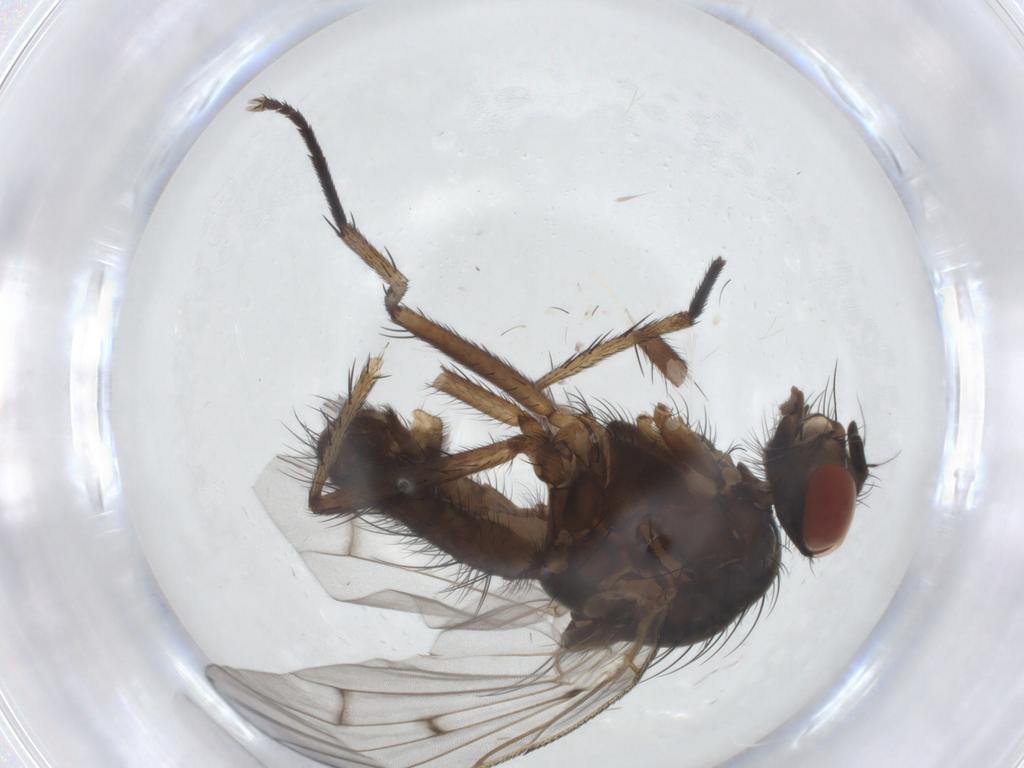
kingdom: Animalia
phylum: Arthropoda
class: Insecta
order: Diptera
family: Anthomyiidae
